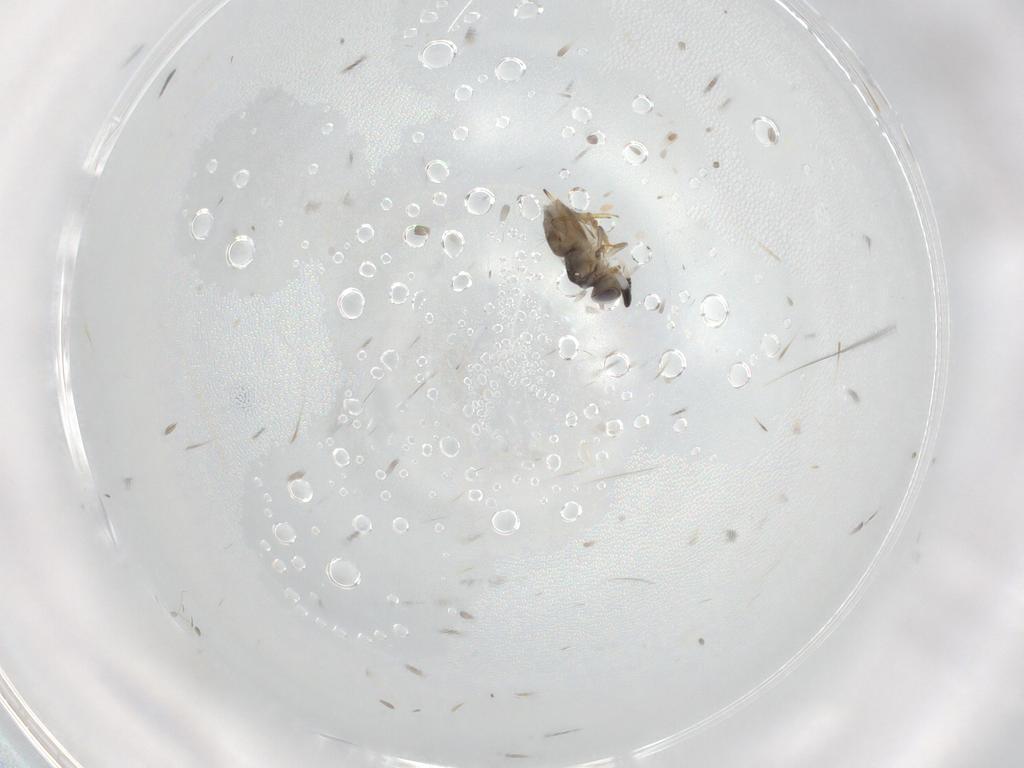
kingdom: Animalia
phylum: Arthropoda
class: Insecta
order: Hymenoptera
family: Encyrtidae
